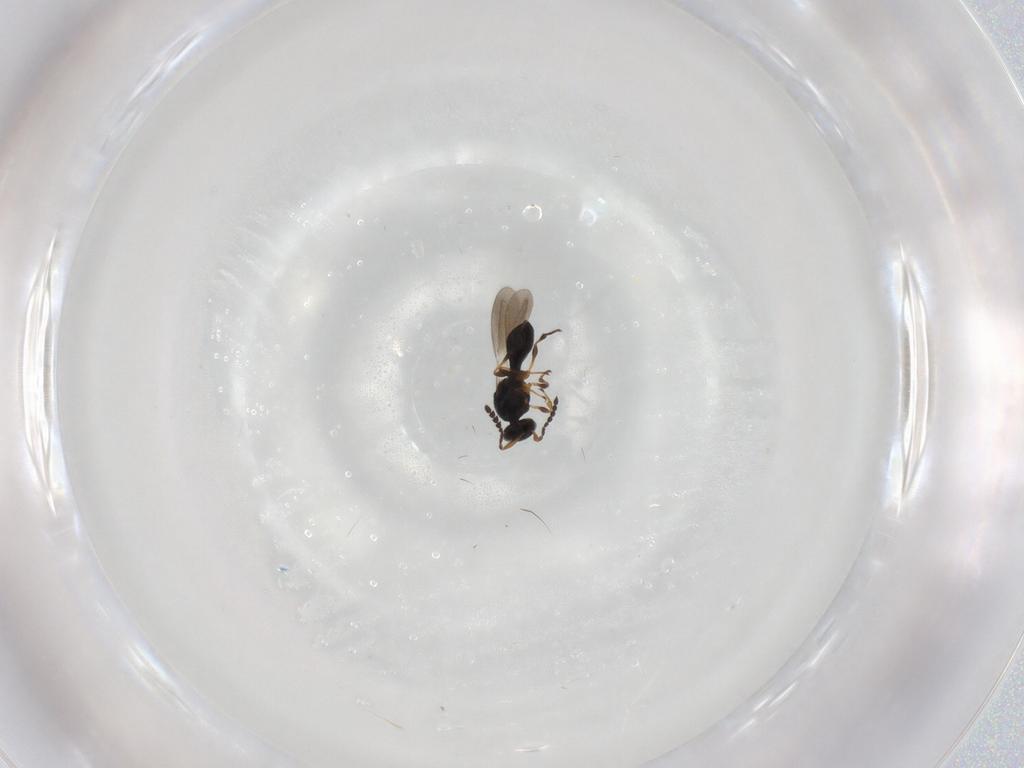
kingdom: Animalia
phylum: Arthropoda
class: Insecta
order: Hymenoptera
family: Platygastridae
